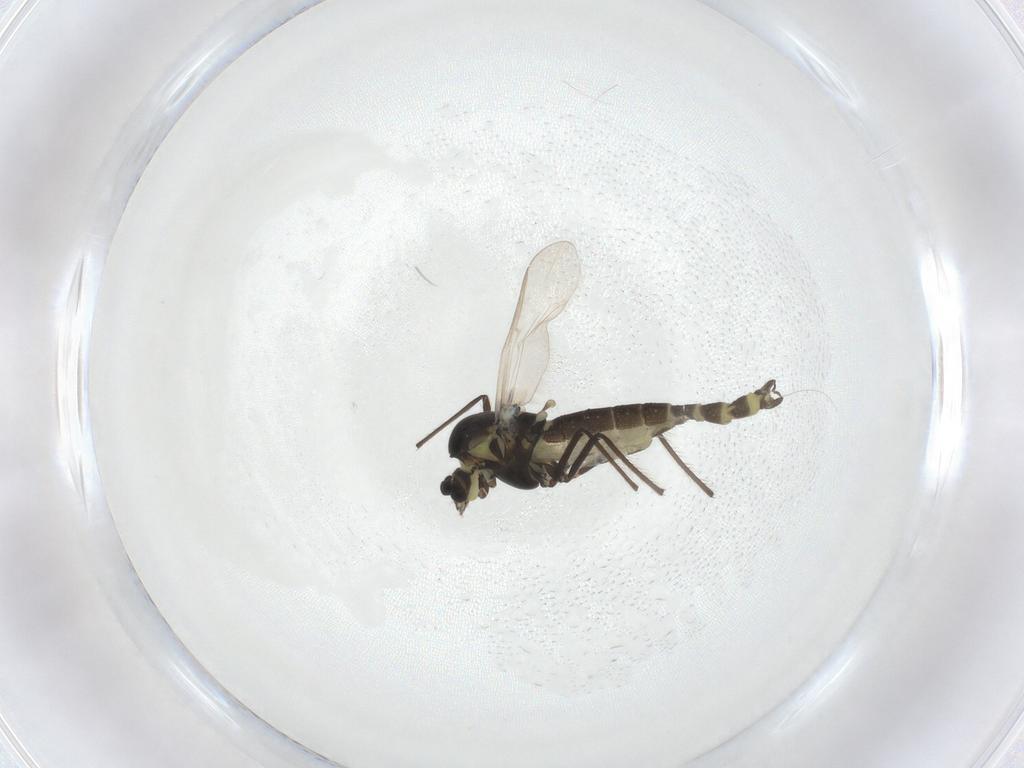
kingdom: Animalia
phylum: Arthropoda
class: Insecta
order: Diptera
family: Chironomidae
